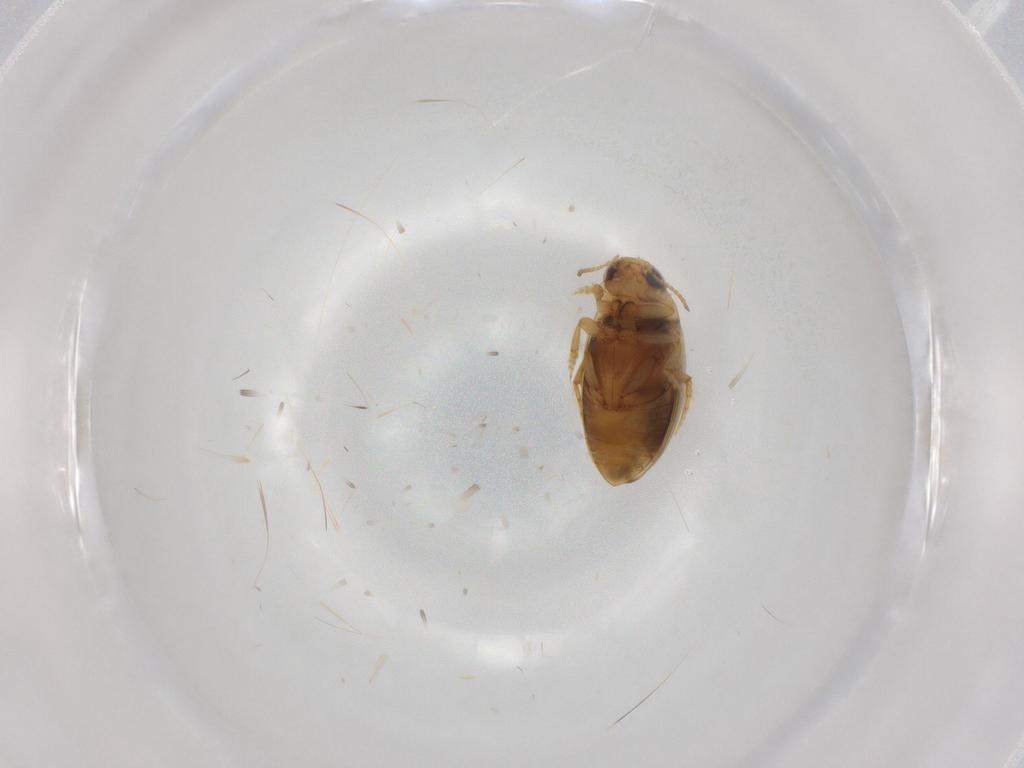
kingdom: Animalia
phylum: Arthropoda
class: Insecta
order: Coleoptera
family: Dytiscidae
